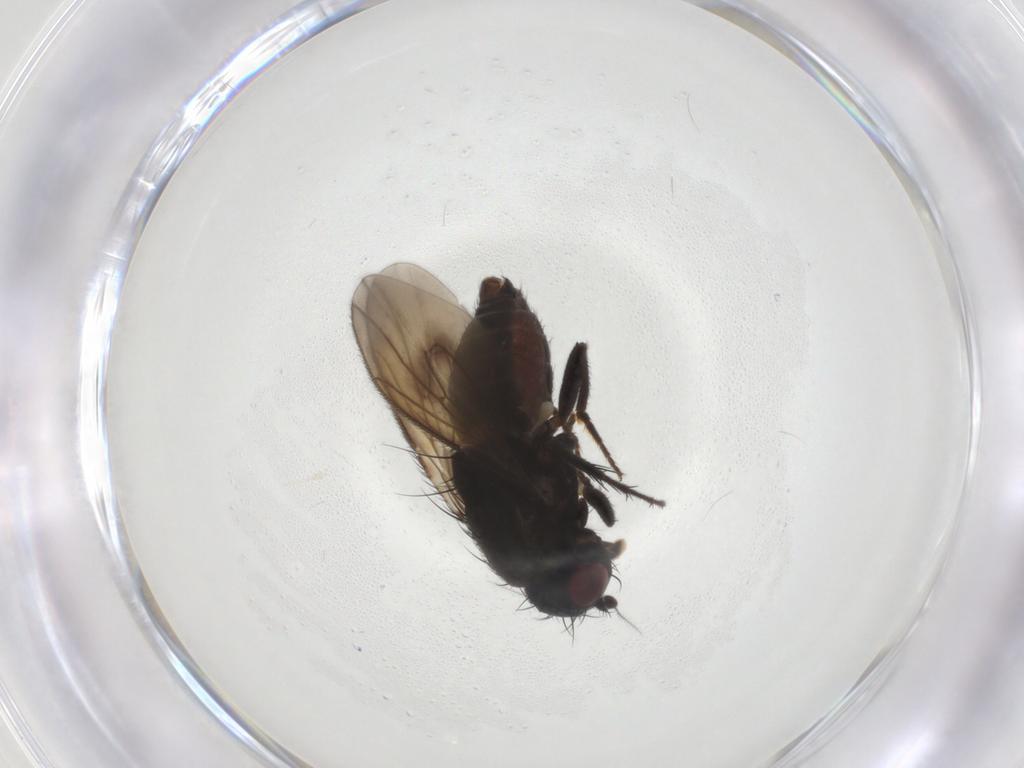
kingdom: Animalia
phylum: Arthropoda
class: Insecta
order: Diptera
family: Sphaeroceridae
